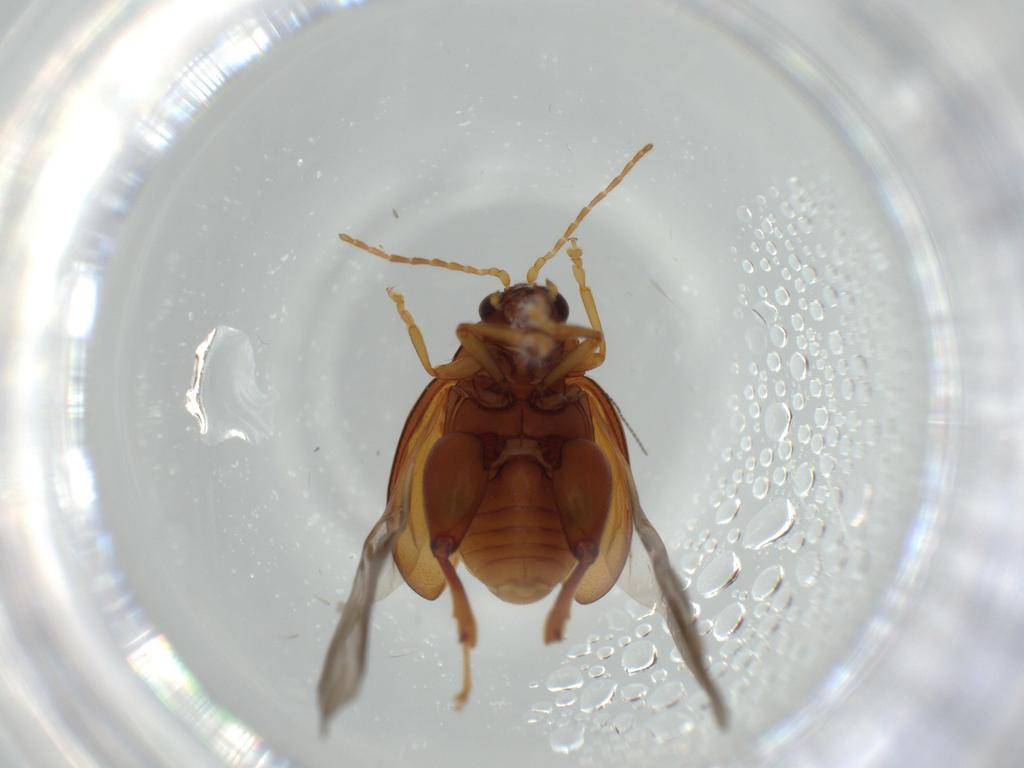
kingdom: Animalia
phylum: Arthropoda
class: Insecta
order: Coleoptera
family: Chrysomelidae
